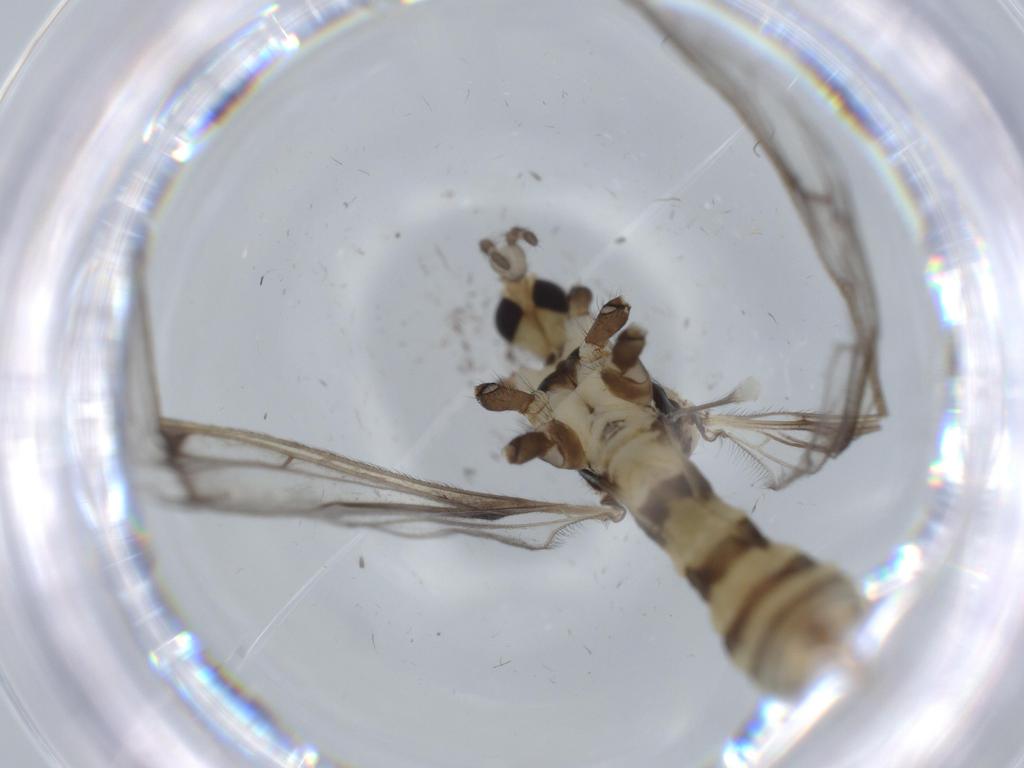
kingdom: Animalia
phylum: Arthropoda
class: Insecta
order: Diptera
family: Limoniidae
